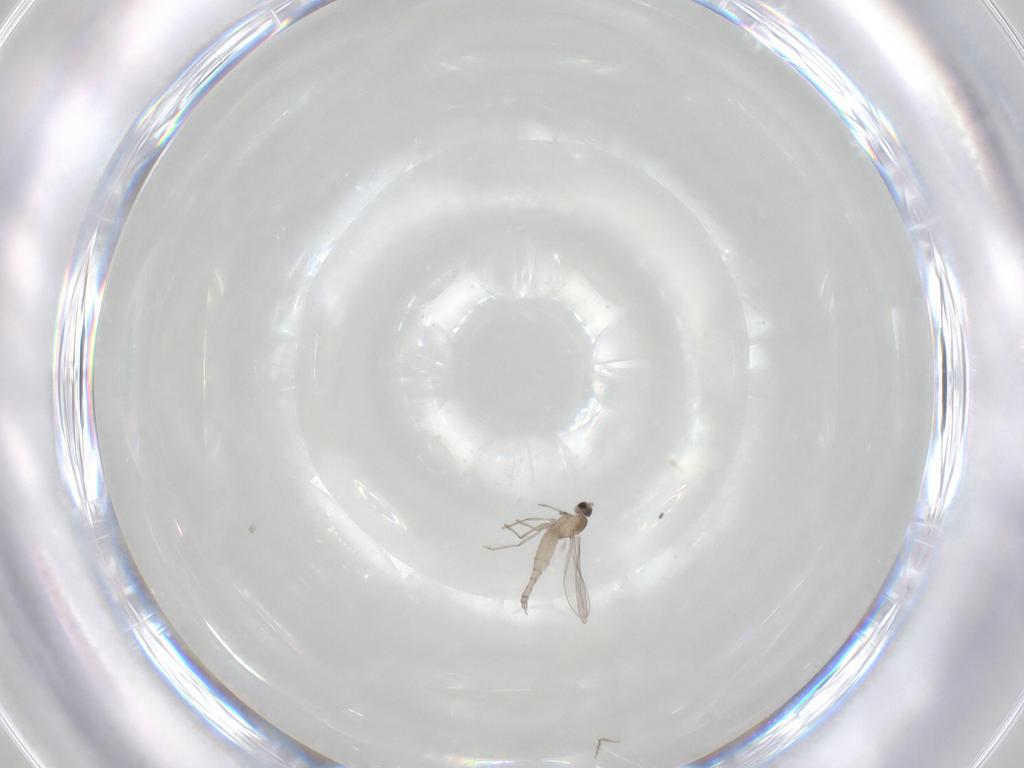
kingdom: Animalia
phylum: Arthropoda
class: Insecta
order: Diptera
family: Cecidomyiidae
